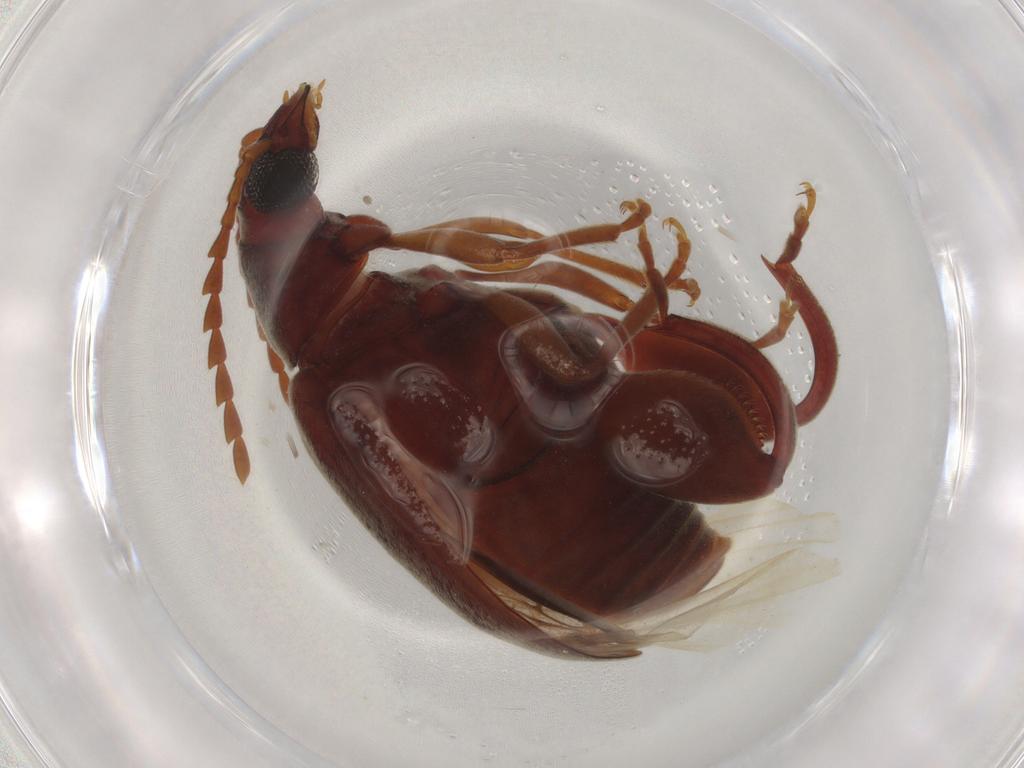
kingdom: Animalia
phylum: Arthropoda
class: Insecta
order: Coleoptera
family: Chrysomelidae
